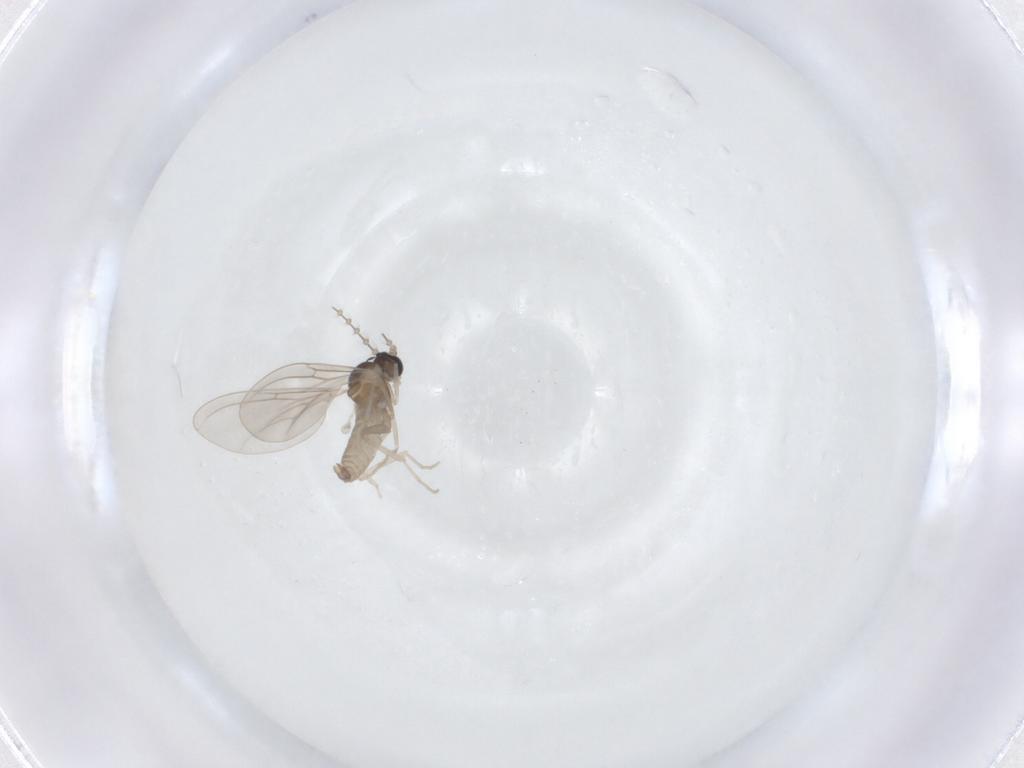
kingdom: Animalia
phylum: Arthropoda
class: Insecta
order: Diptera
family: Cecidomyiidae
